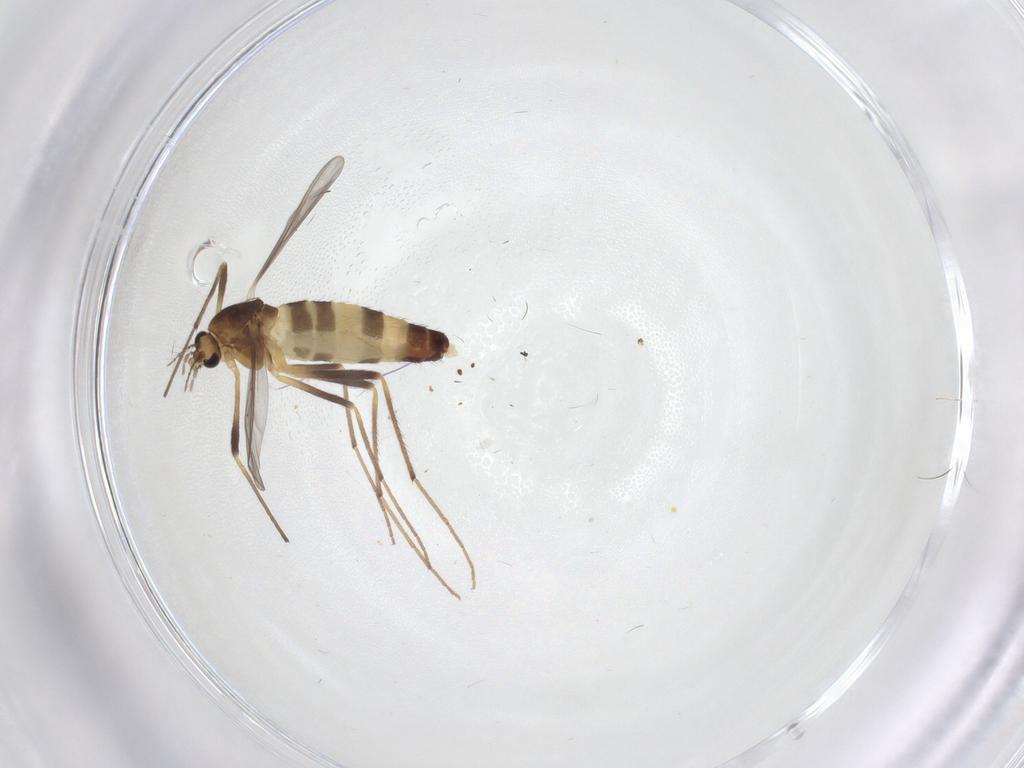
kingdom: Animalia
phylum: Arthropoda
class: Insecta
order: Diptera
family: Chironomidae
